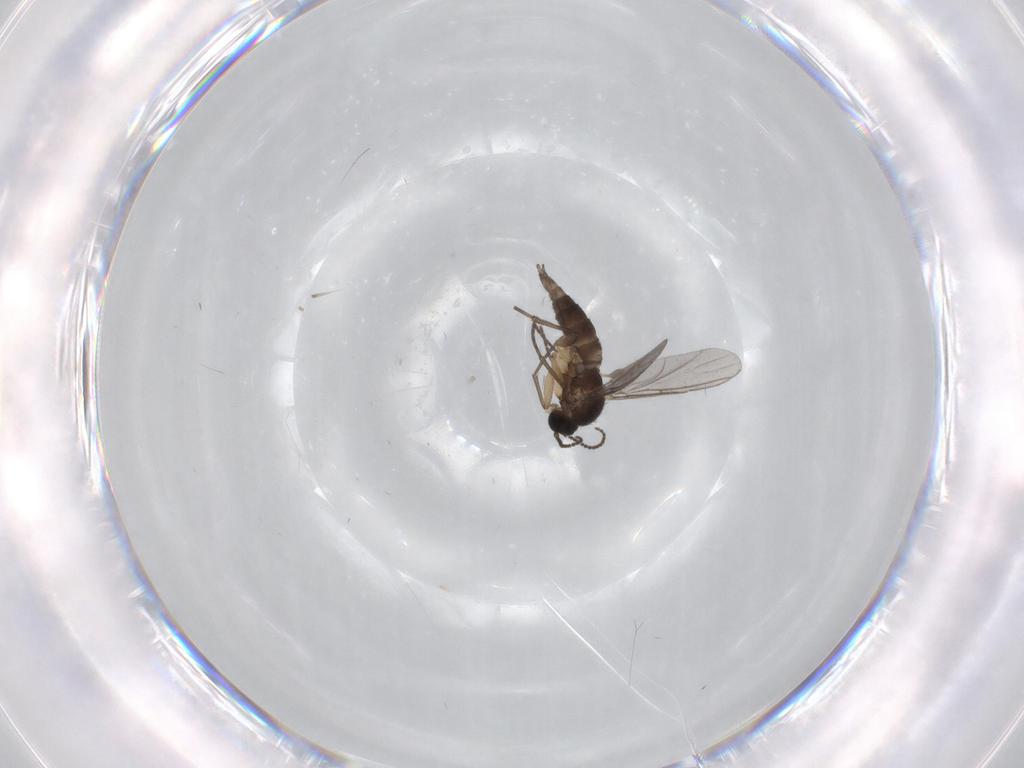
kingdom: Animalia
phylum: Arthropoda
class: Insecta
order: Diptera
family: Sciaridae
